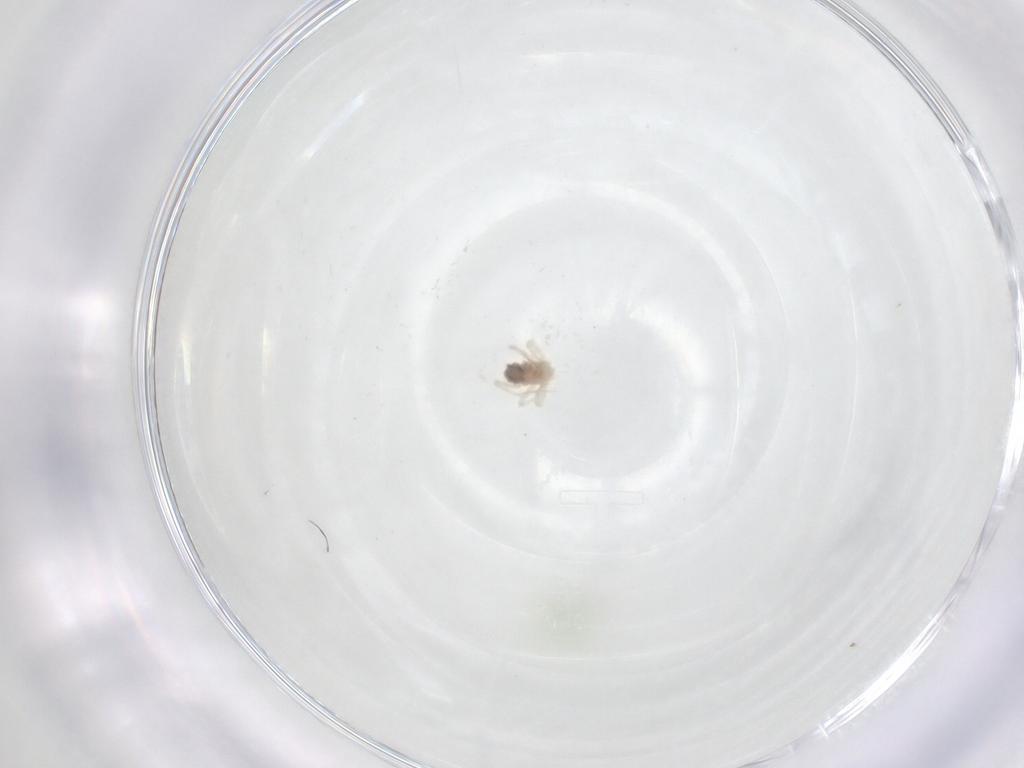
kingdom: Animalia
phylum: Arthropoda
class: Arachnida
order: Trombidiformes
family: Anystidae
